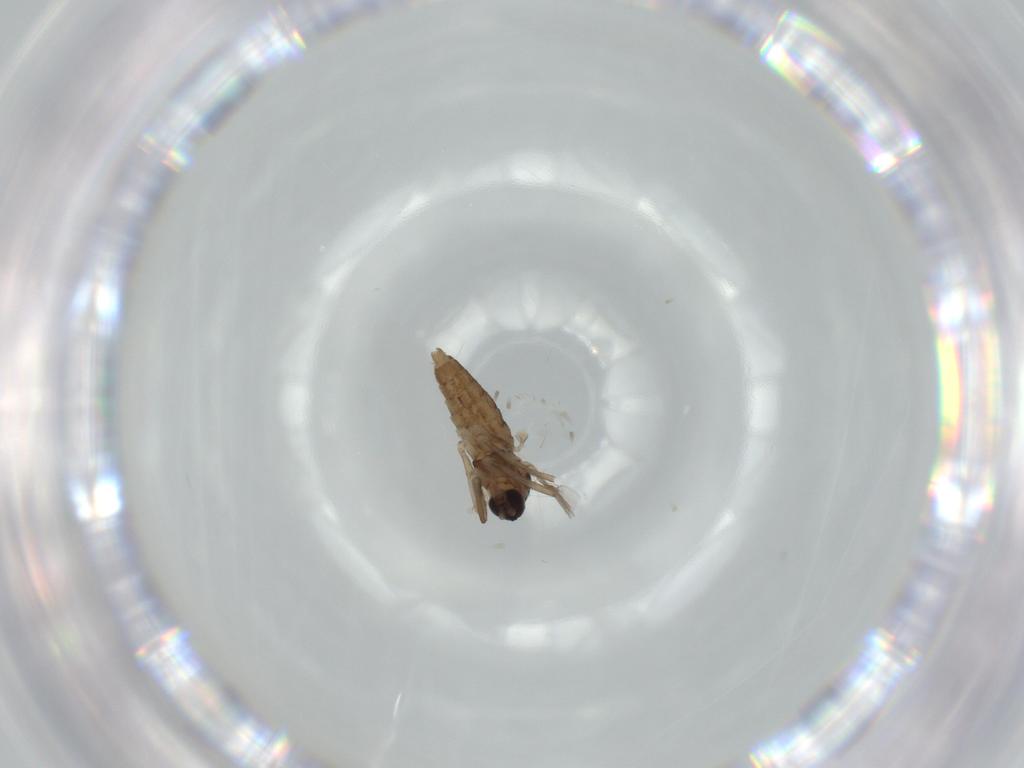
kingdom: Animalia
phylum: Arthropoda
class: Insecta
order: Diptera
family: Cecidomyiidae
